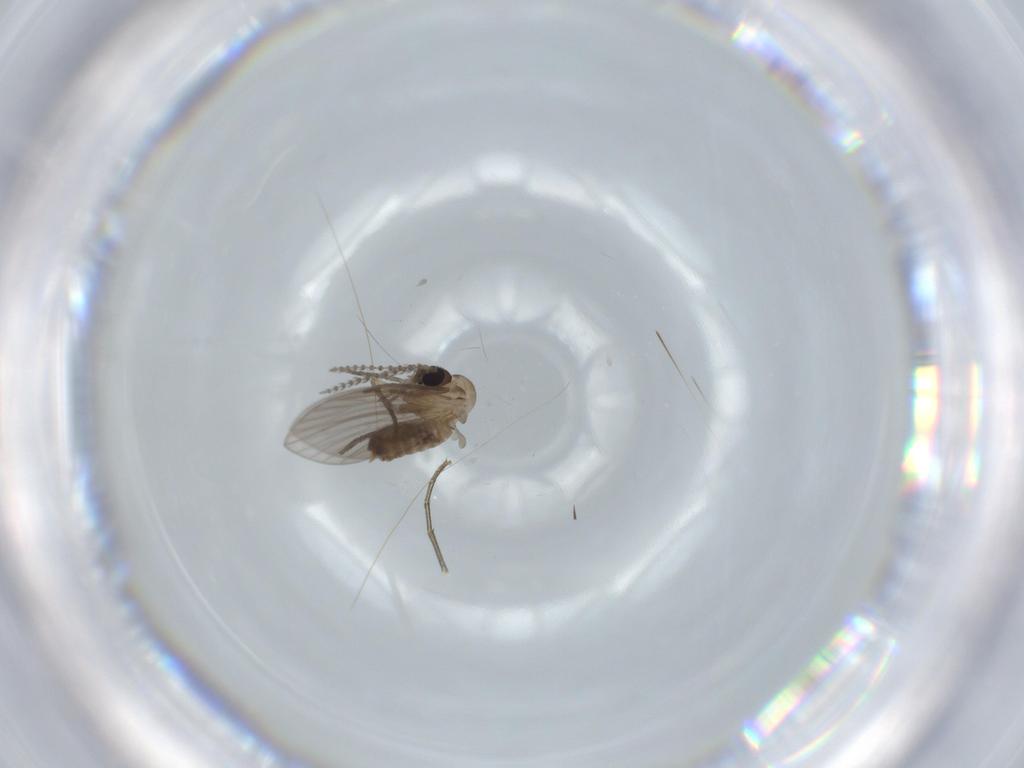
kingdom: Animalia
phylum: Arthropoda
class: Insecta
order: Diptera
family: Psychodidae
